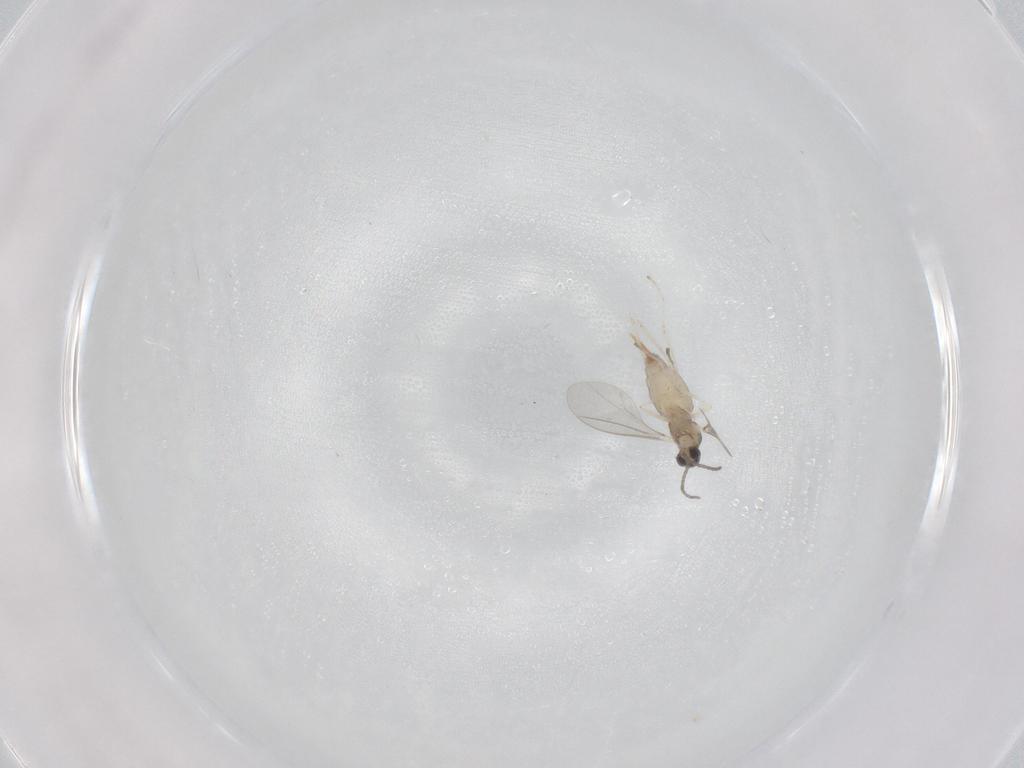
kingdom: Animalia
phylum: Arthropoda
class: Insecta
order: Diptera
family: Cecidomyiidae
